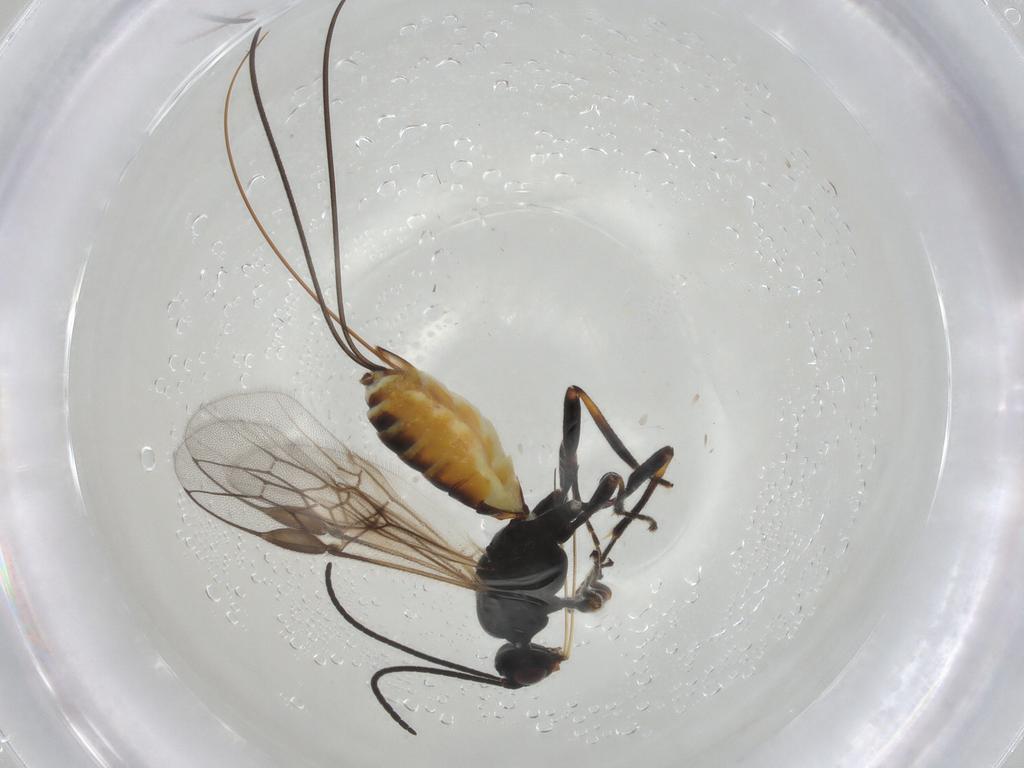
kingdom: Animalia
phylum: Arthropoda
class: Insecta
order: Hymenoptera
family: Braconidae
